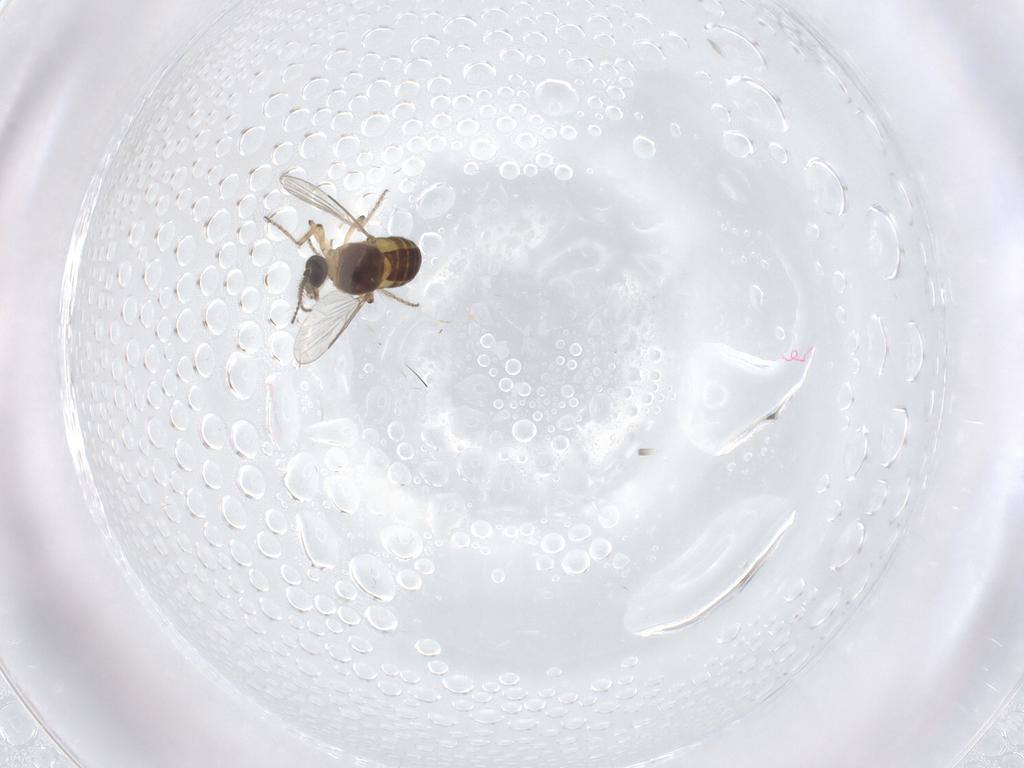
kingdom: Animalia
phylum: Arthropoda
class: Insecta
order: Diptera
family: Ceratopogonidae
